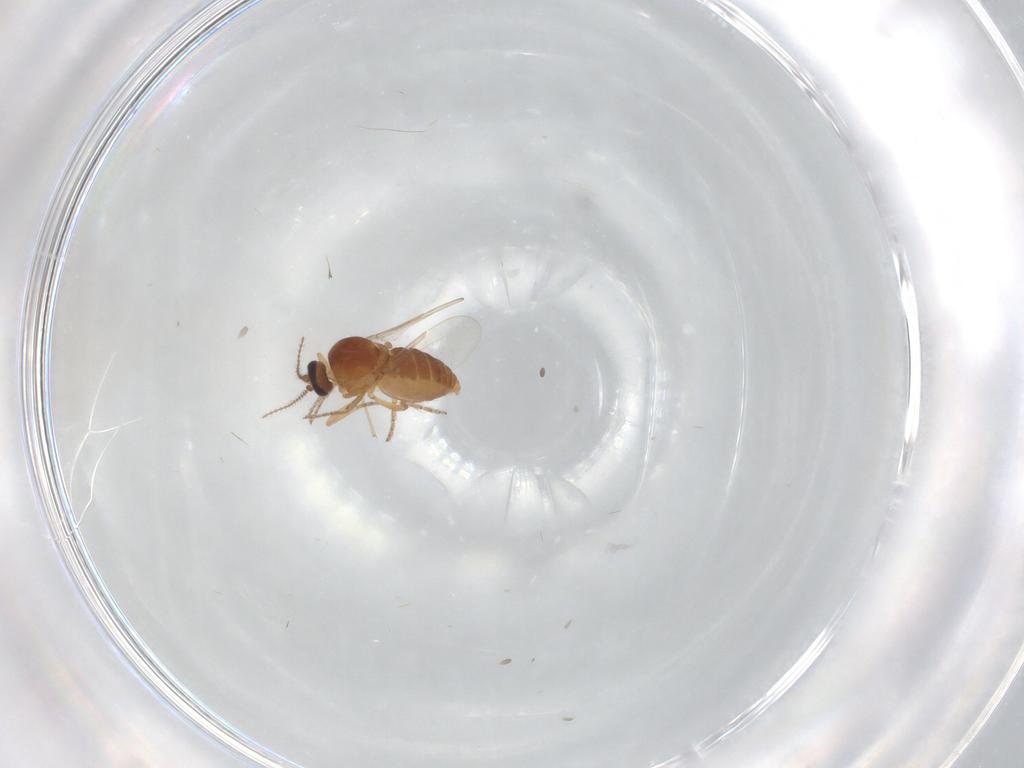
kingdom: Animalia
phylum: Arthropoda
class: Insecta
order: Diptera
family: Ceratopogonidae
